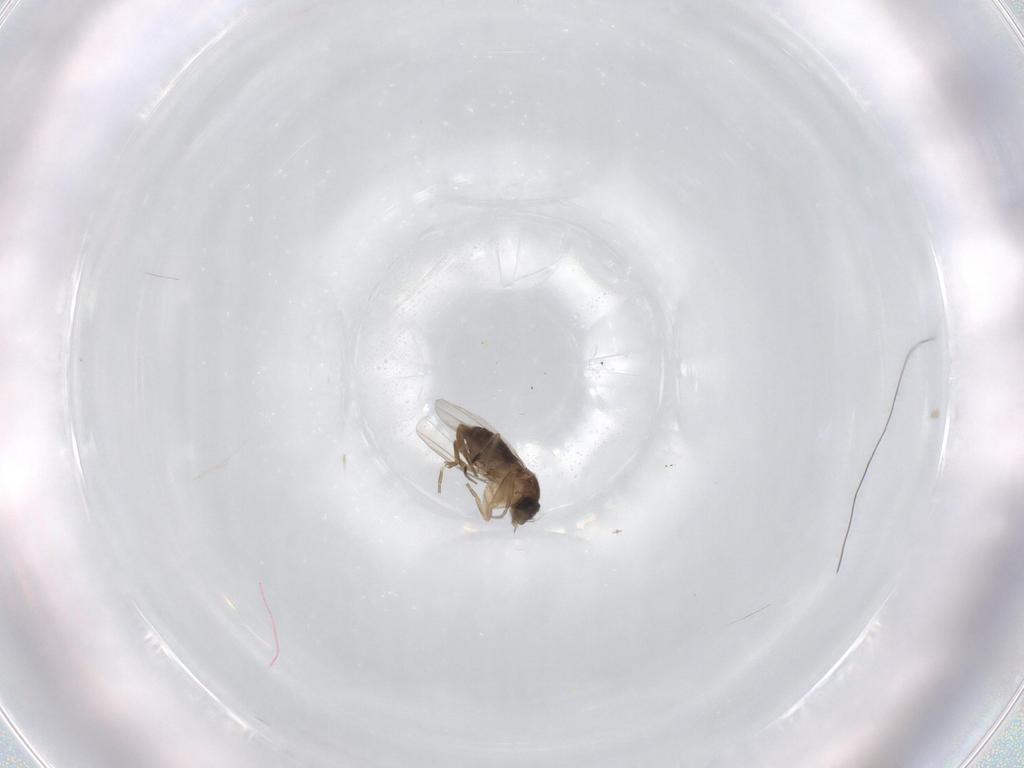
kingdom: Animalia
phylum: Arthropoda
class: Insecta
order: Diptera
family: Phoridae
